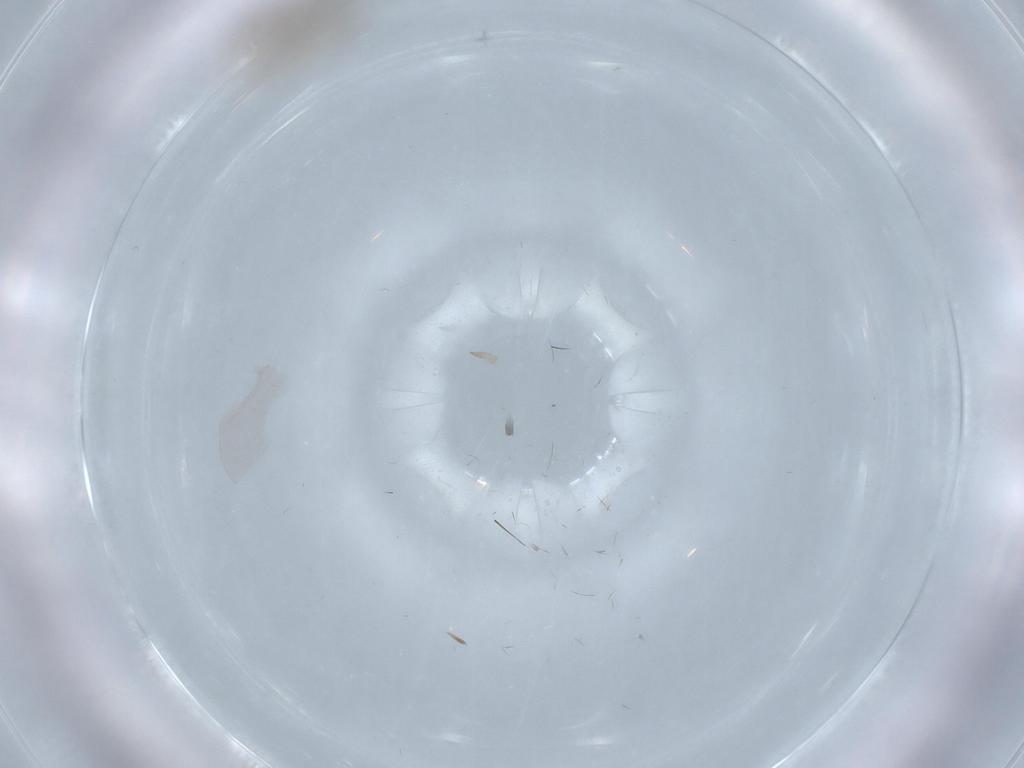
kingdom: Animalia
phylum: Arthropoda
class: Insecta
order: Diptera
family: Cecidomyiidae
